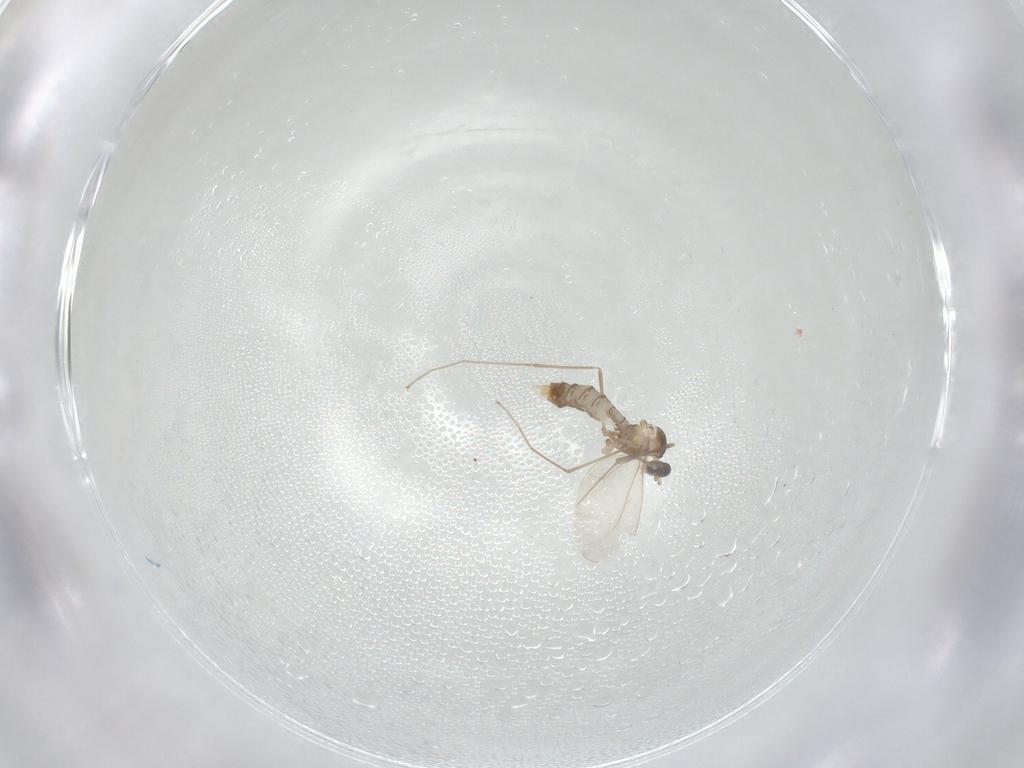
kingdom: Animalia
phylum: Arthropoda
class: Insecta
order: Diptera
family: Cecidomyiidae
